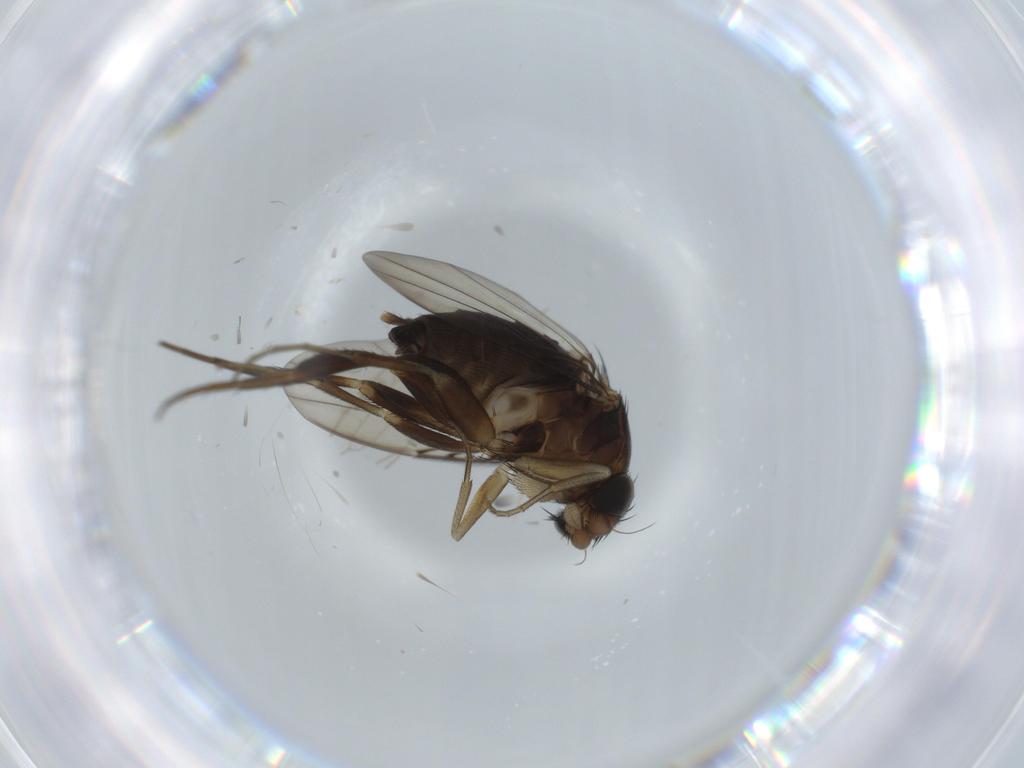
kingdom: Animalia
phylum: Arthropoda
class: Insecta
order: Diptera
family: Phoridae
